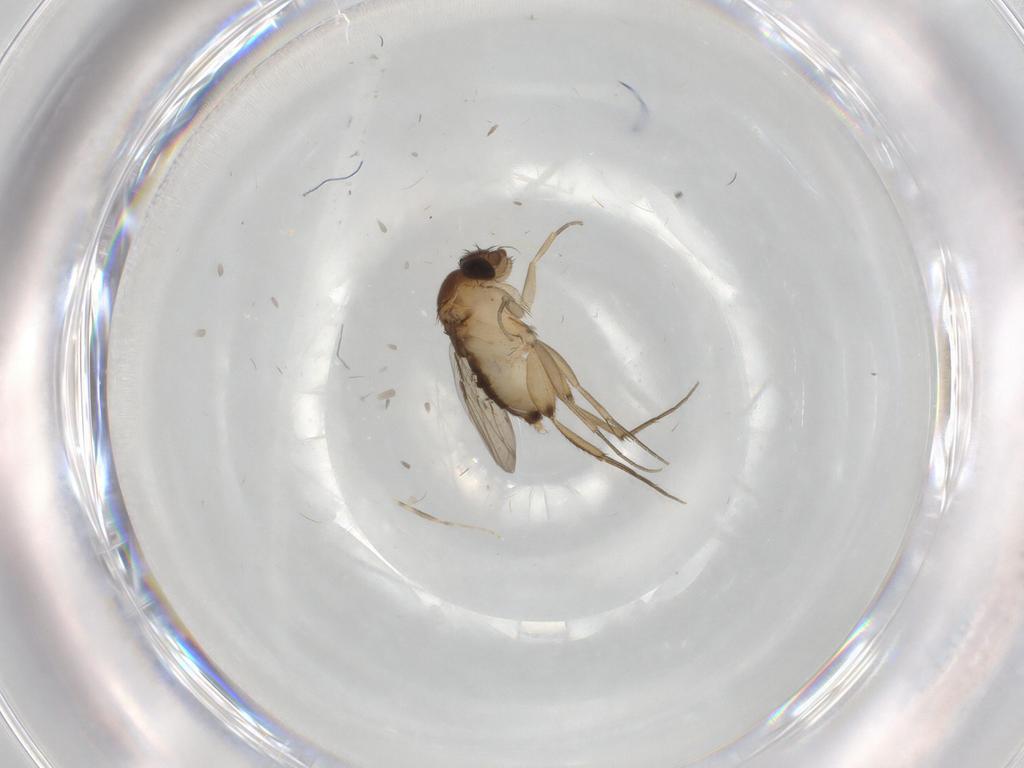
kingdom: Animalia
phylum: Arthropoda
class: Insecta
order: Diptera
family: Phoridae
